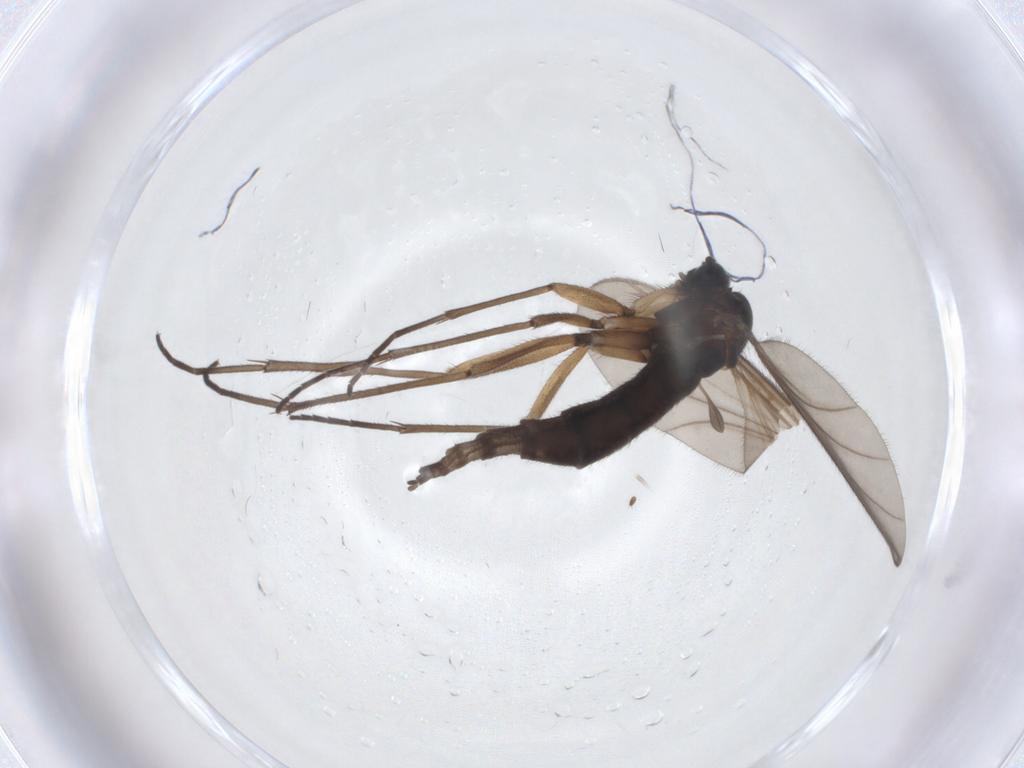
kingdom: Animalia
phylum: Arthropoda
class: Insecta
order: Diptera
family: Sciaridae
